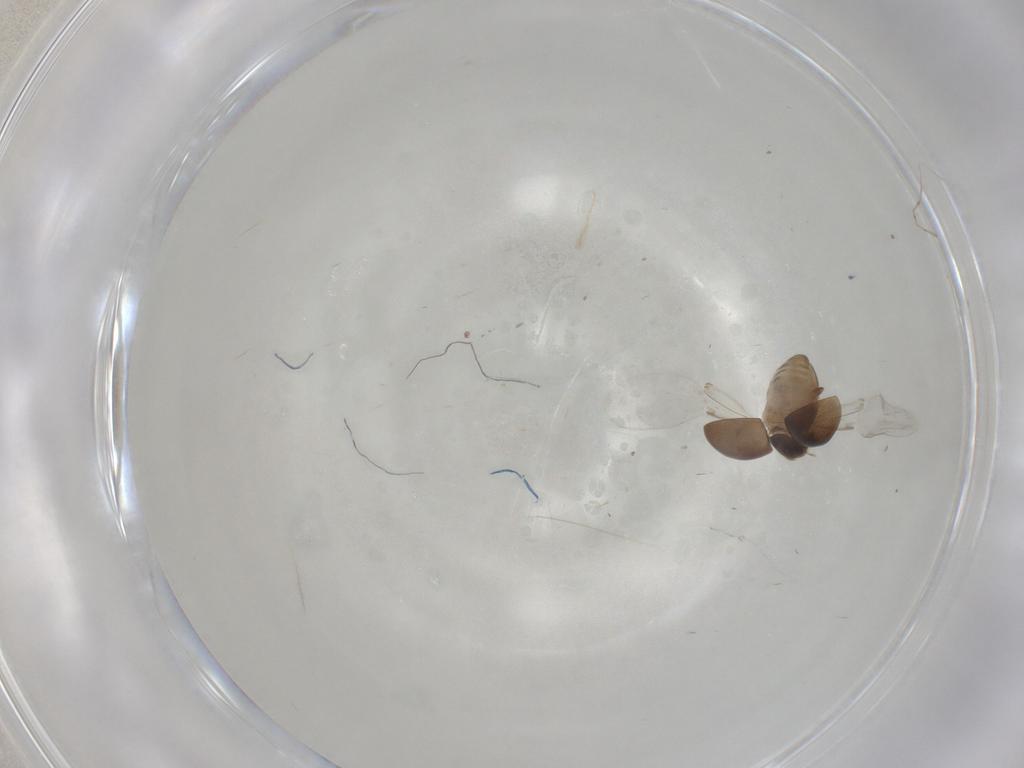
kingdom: Animalia
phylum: Arthropoda
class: Insecta
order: Coleoptera
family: Corylophidae
